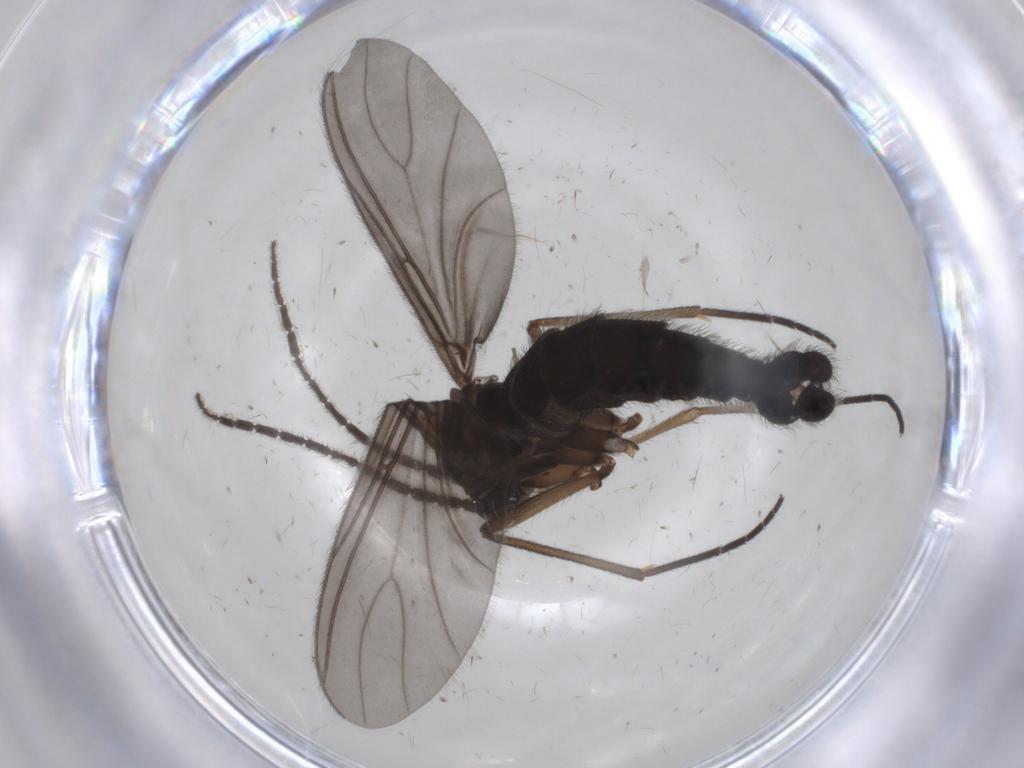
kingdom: Animalia
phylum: Arthropoda
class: Insecta
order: Diptera
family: Sciaridae
